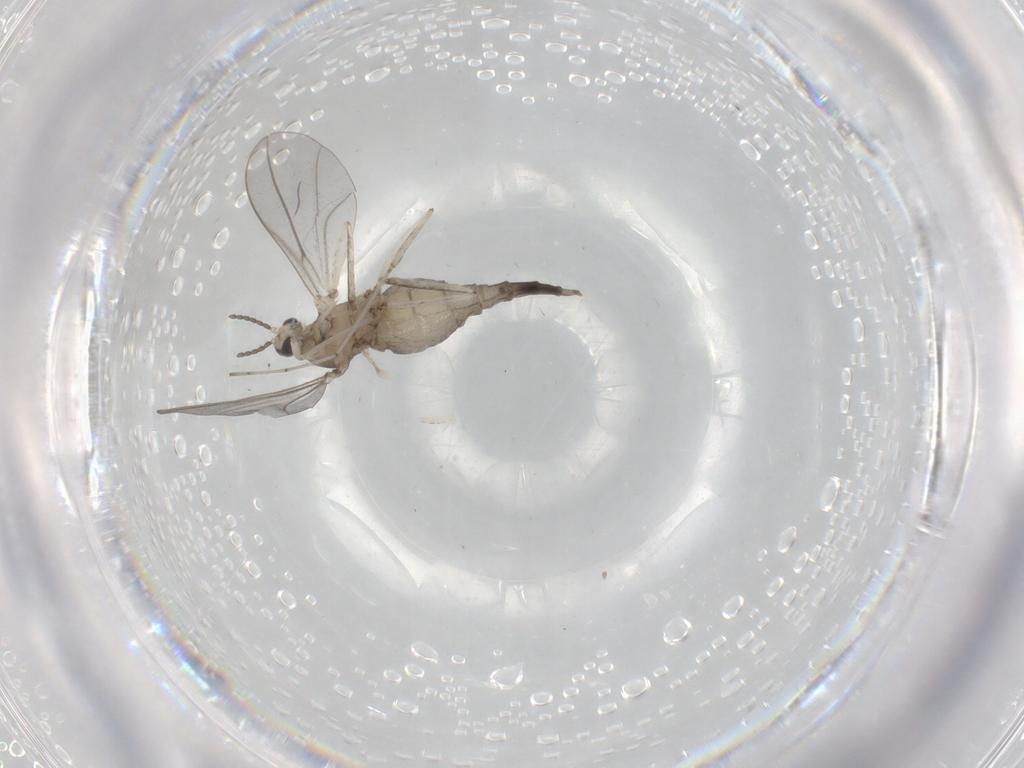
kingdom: Animalia
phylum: Arthropoda
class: Insecta
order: Diptera
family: Cecidomyiidae
